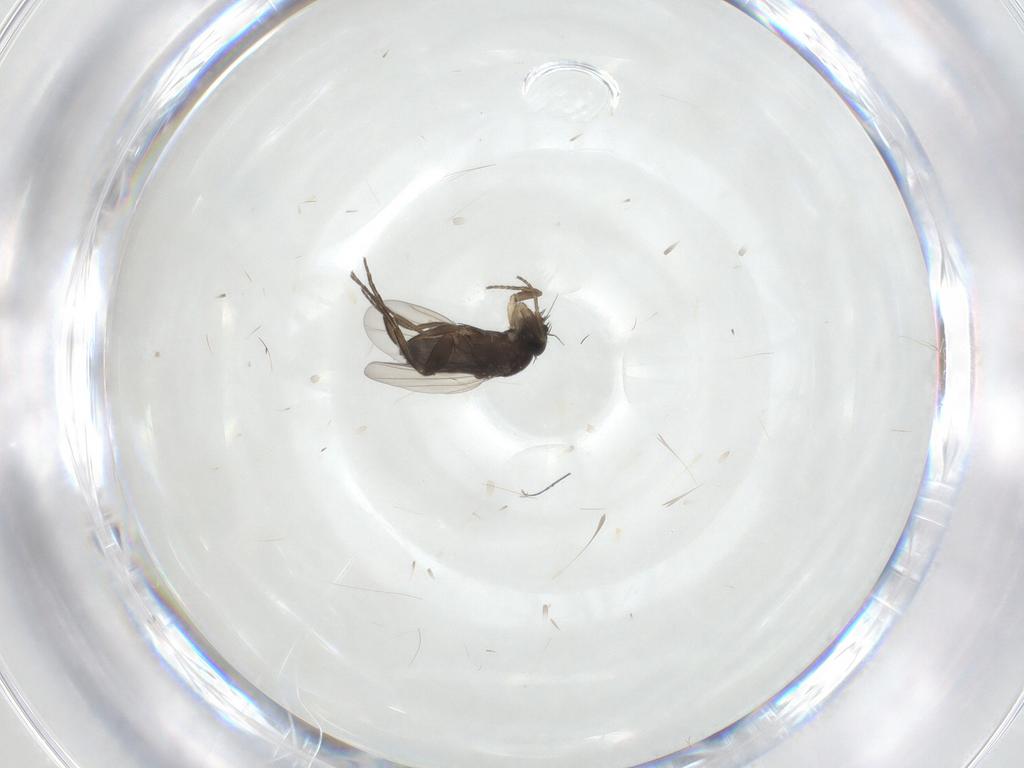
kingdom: Animalia
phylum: Arthropoda
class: Insecta
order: Diptera
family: Phoridae
